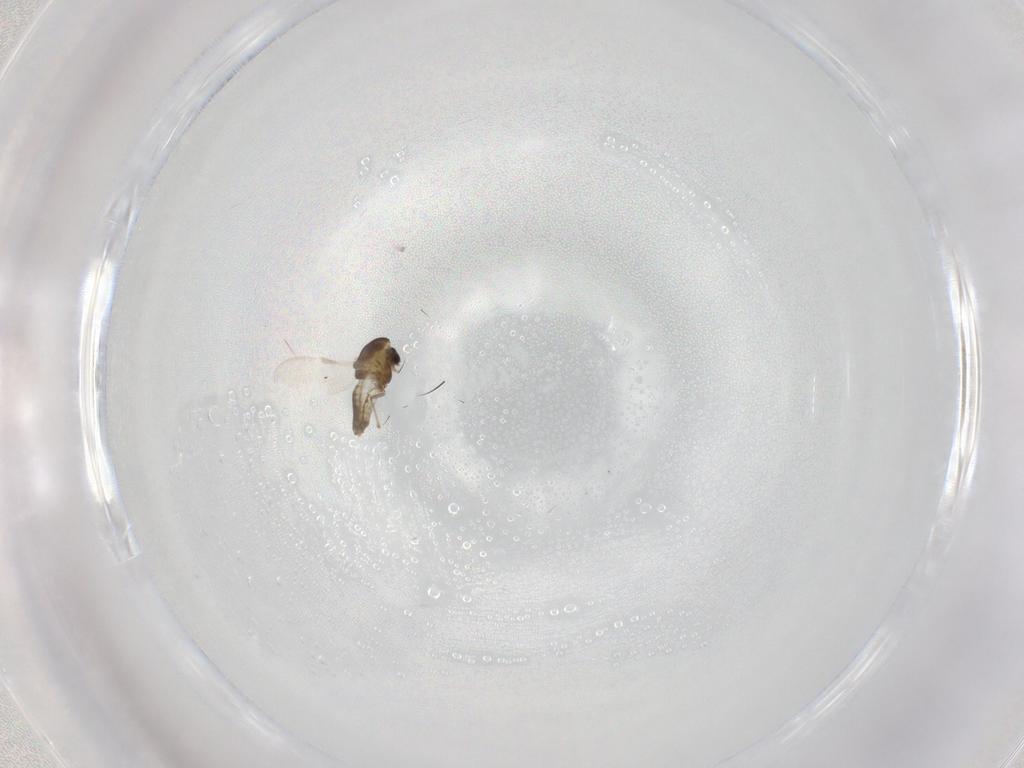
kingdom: Animalia
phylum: Arthropoda
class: Insecta
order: Diptera
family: Chironomidae
